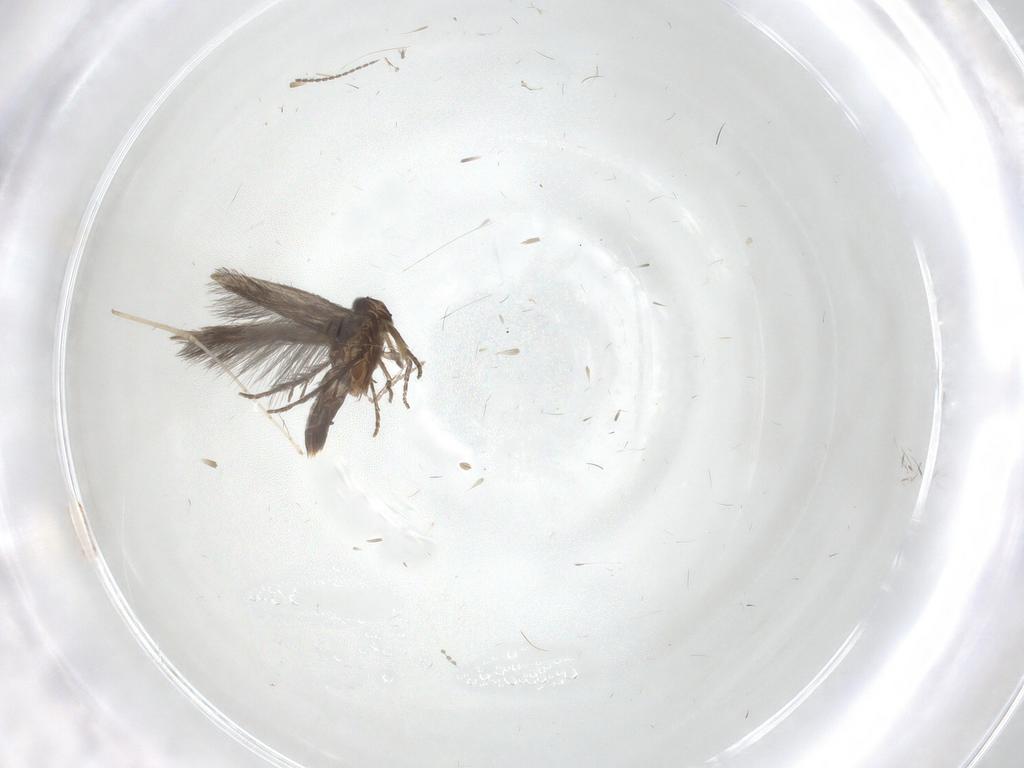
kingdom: Animalia
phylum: Arthropoda
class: Insecta
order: Trichoptera
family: Hydroptilidae
